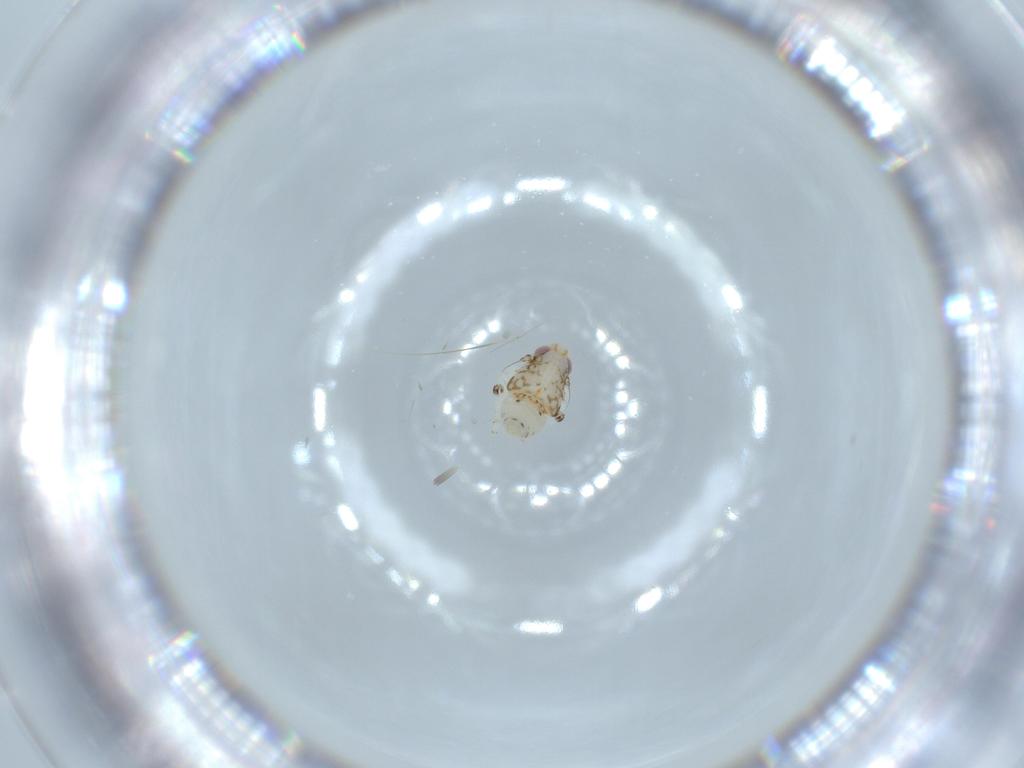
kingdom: Animalia
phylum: Arthropoda
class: Insecta
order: Hemiptera
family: Nogodinidae
